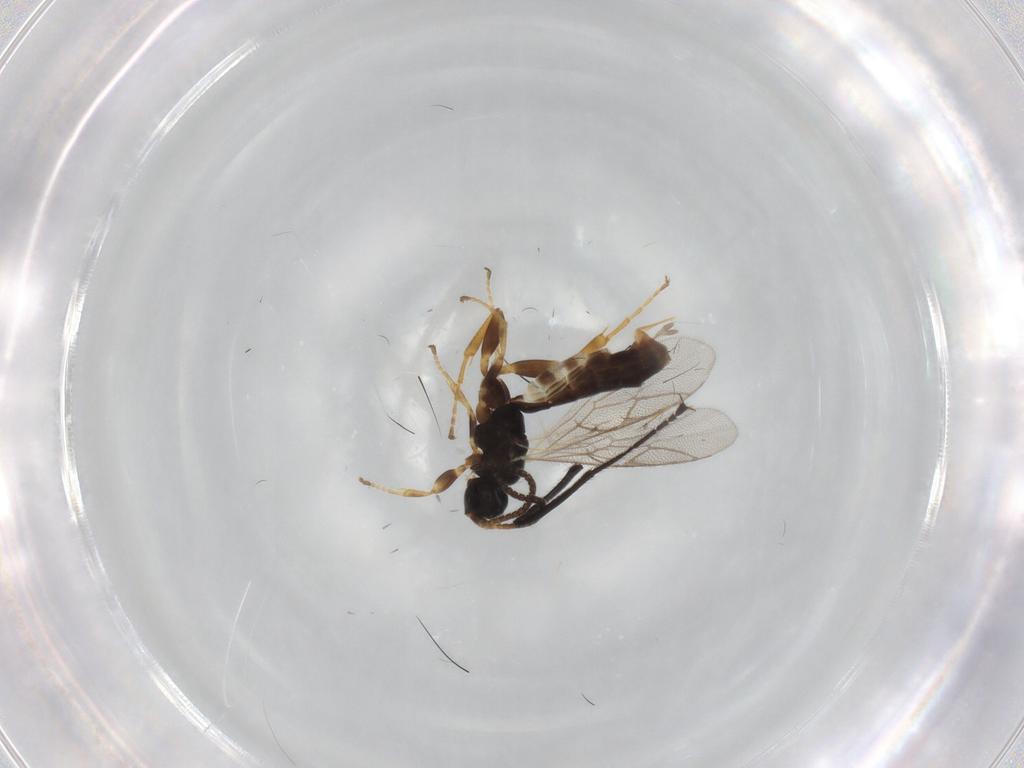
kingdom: Animalia
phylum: Arthropoda
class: Insecta
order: Hymenoptera
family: Ichneumonidae
